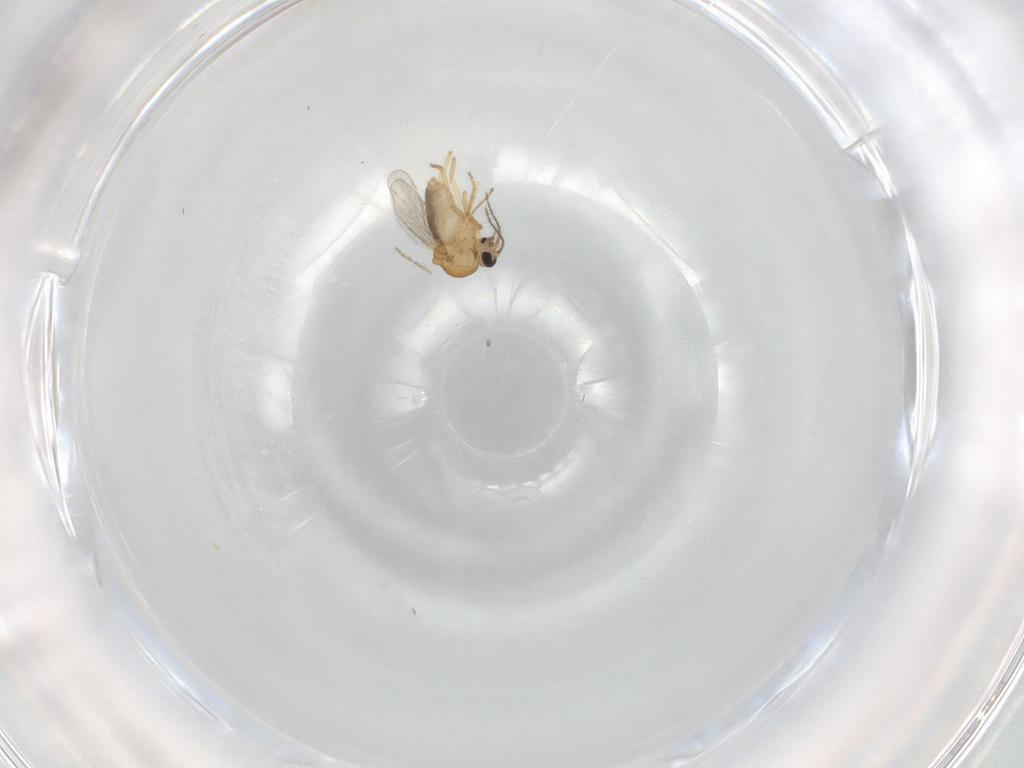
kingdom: Animalia
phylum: Arthropoda
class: Insecta
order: Diptera
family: Ceratopogonidae
